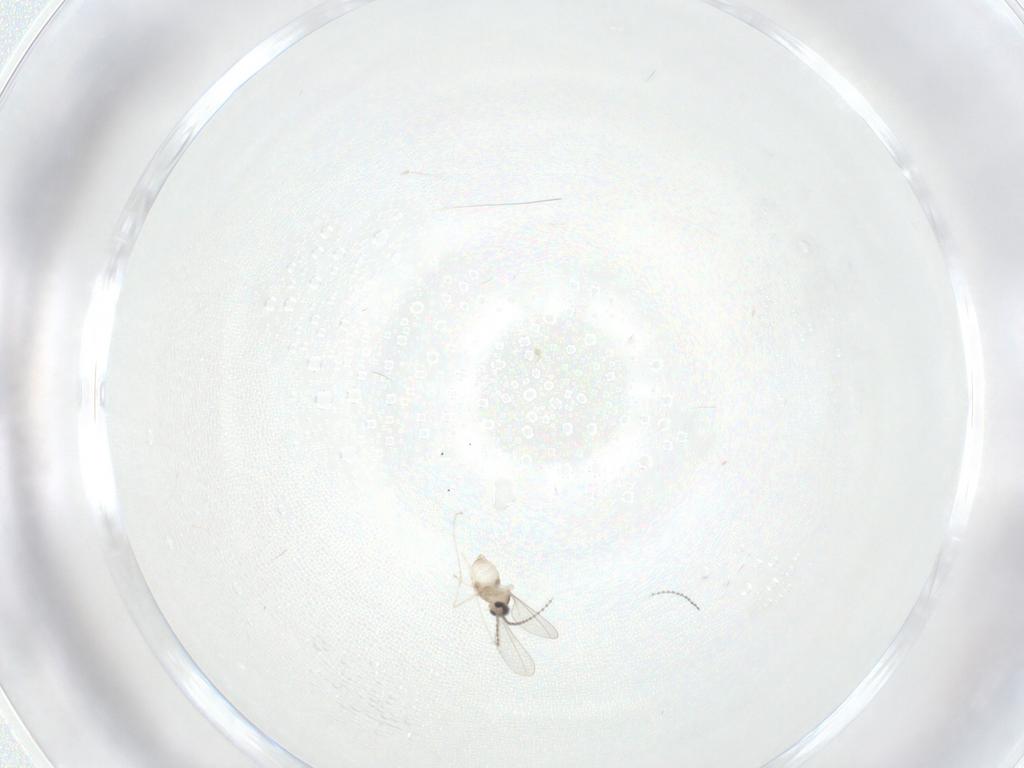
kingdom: Animalia
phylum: Arthropoda
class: Insecta
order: Diptera
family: Cecidomyiidae
